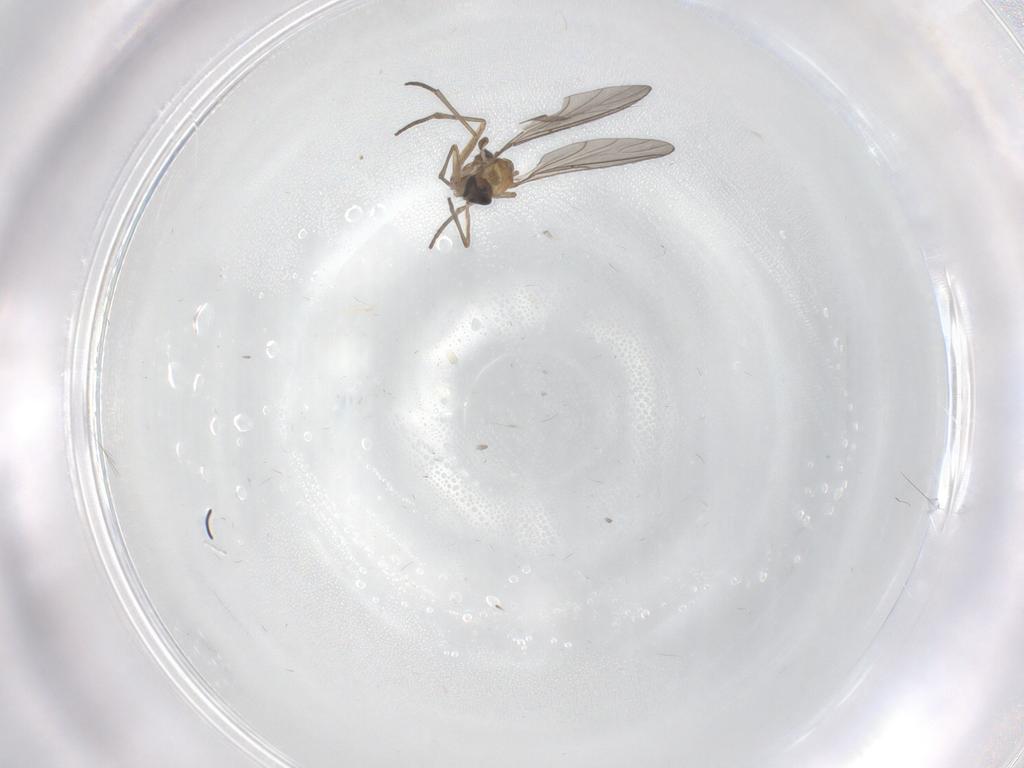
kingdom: Animalia
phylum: Arthropoda
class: Insecta
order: Diptera
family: Sciaridae
